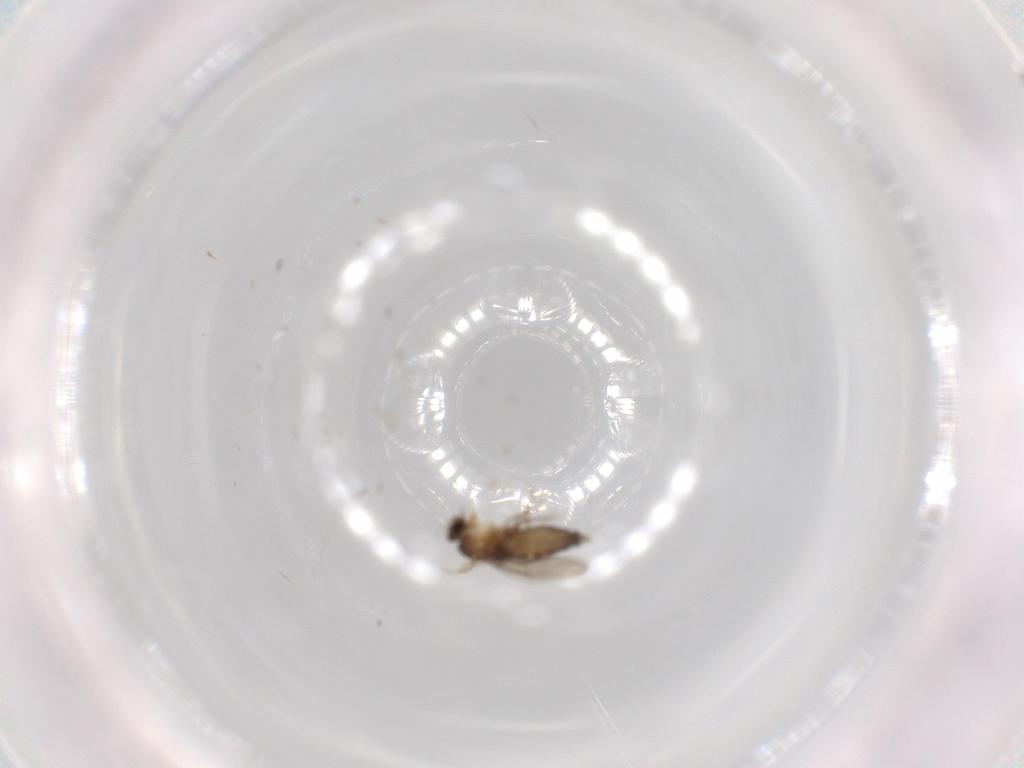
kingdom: Animalia
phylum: Arthropoda
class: Insecta
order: Diptera
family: Phoridae
